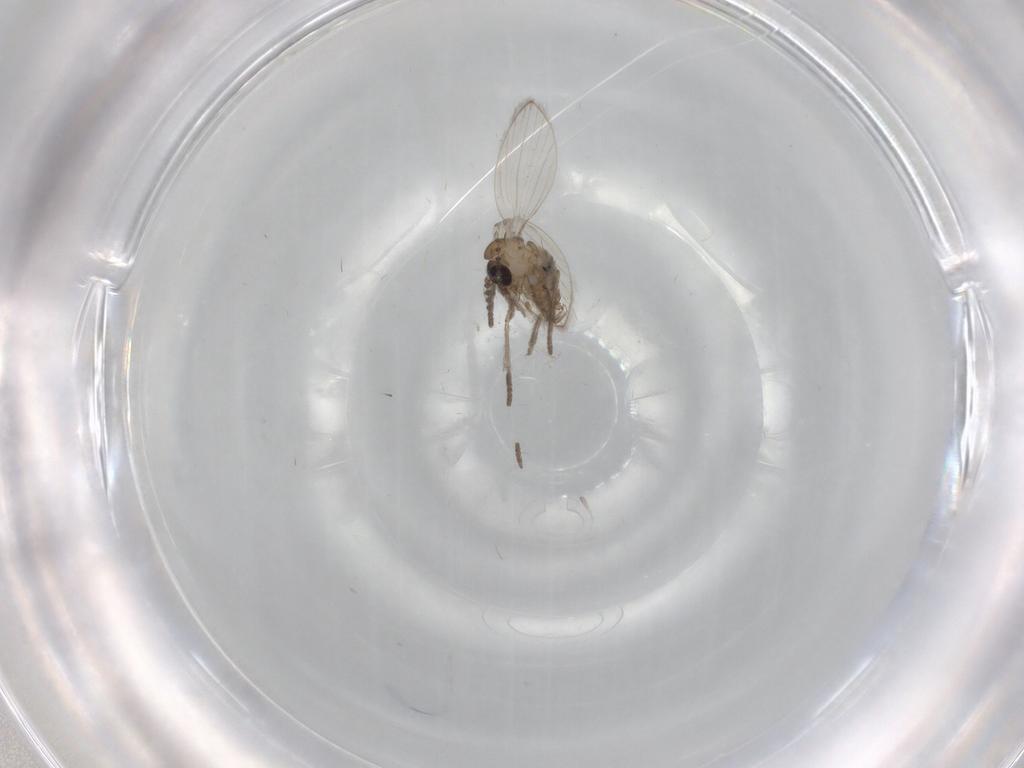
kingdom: Animalia
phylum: Arthropoda
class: Insecta
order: Diptera
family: Psychodidae
